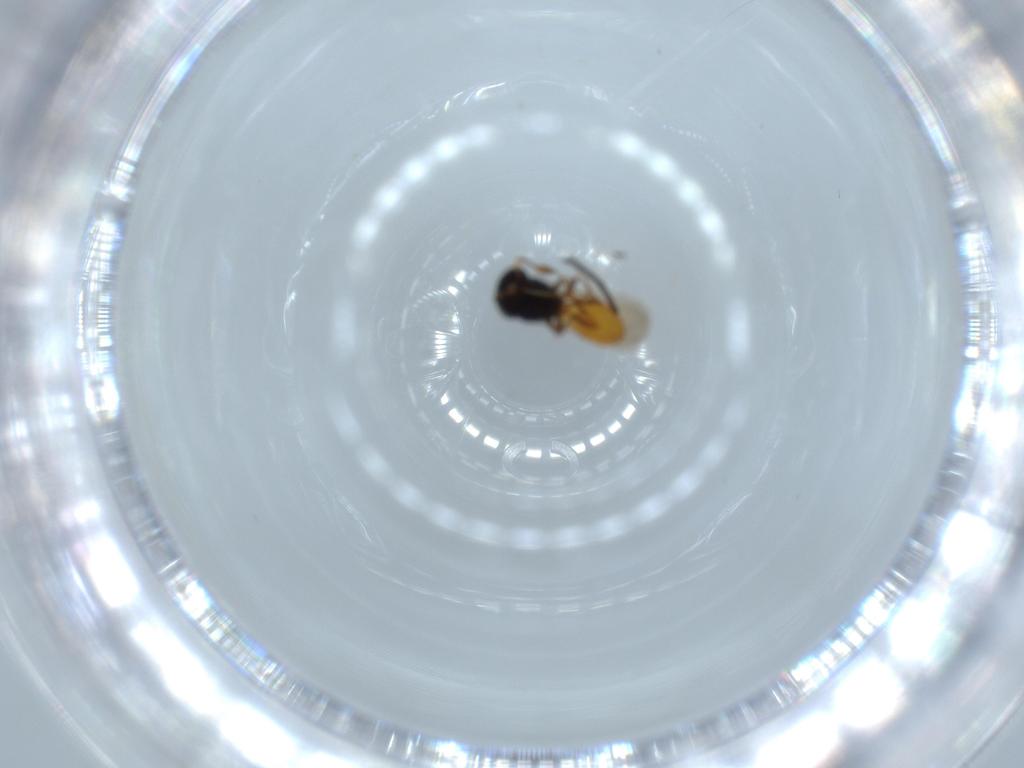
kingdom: Animalia
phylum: Arthropoda
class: Insecta
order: Hymenoptera
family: Scelionidae
